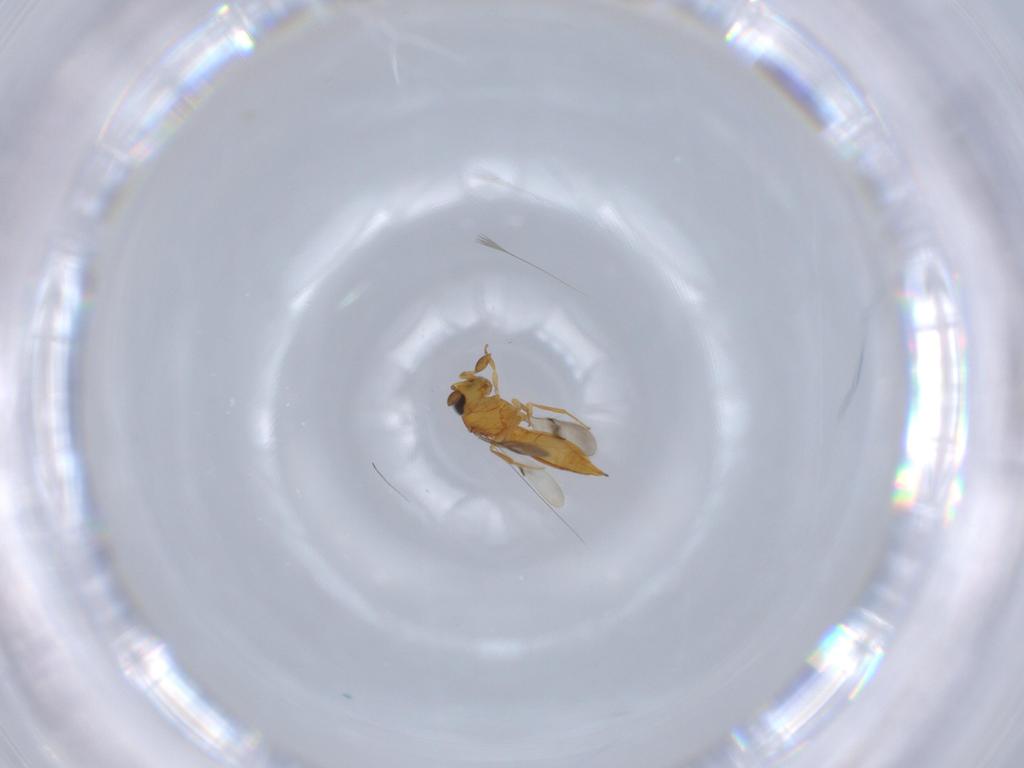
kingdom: Animalia
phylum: Arthropoda
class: Insecta
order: Hymenoptera
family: Scelionidae
